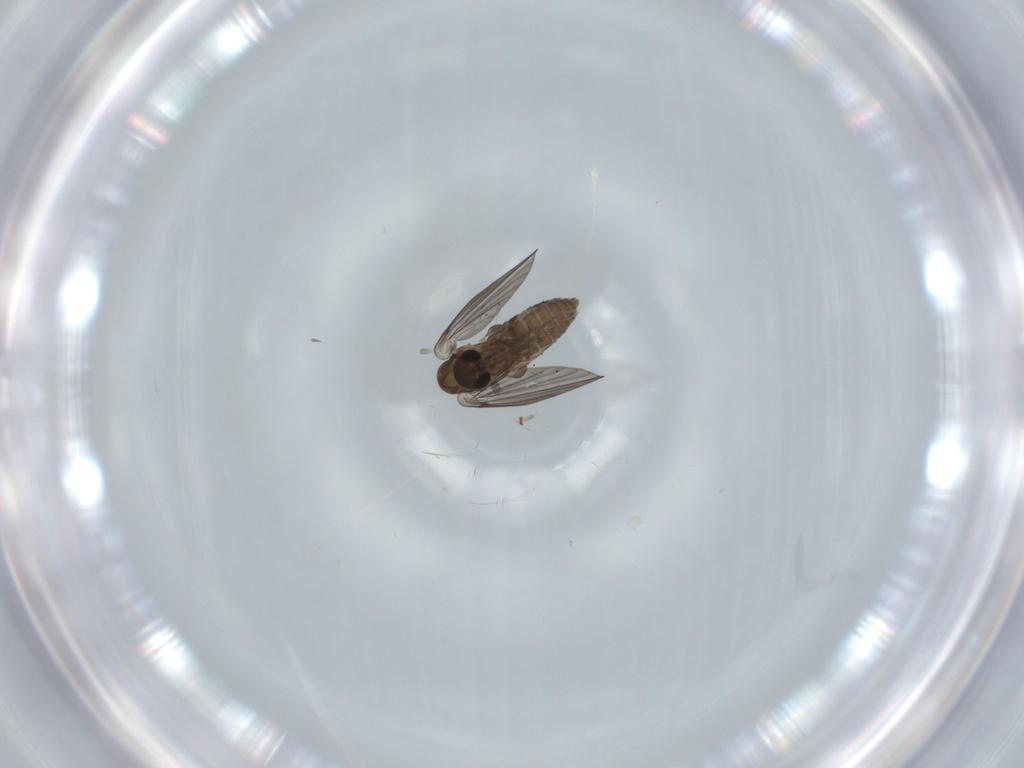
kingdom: Animalia
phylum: Arthropoda
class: Insecta
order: Diptera
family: Psychodidae
